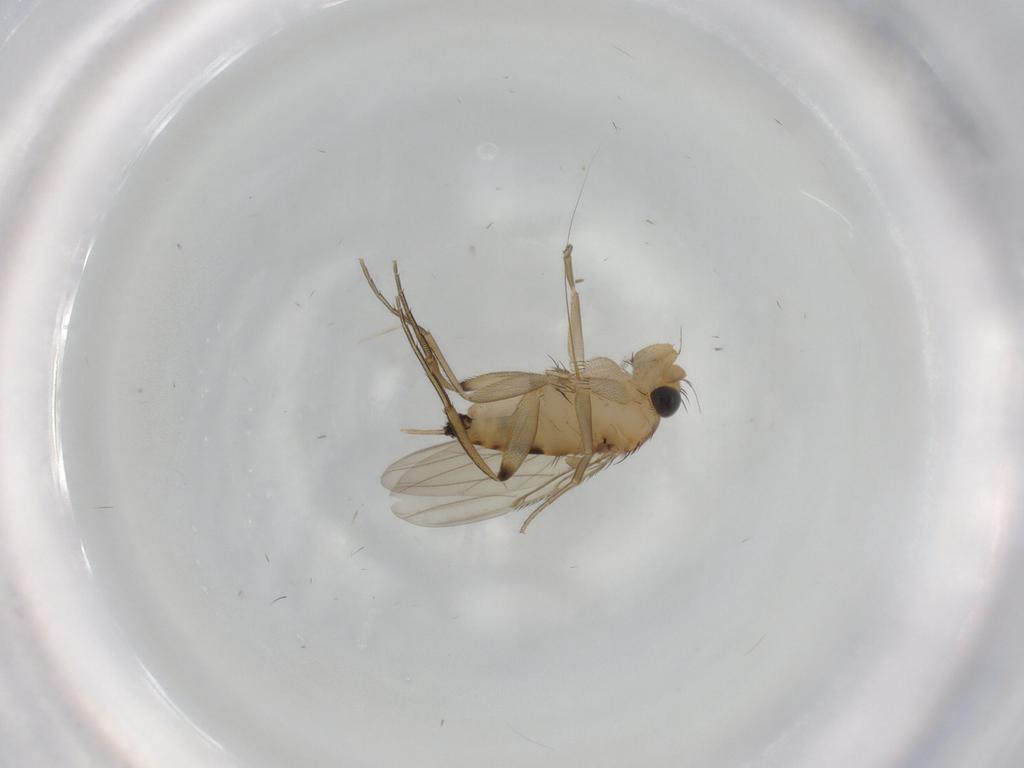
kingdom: Animalia
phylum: Arthropoda
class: Insecta
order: Diptera
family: Phoridae
